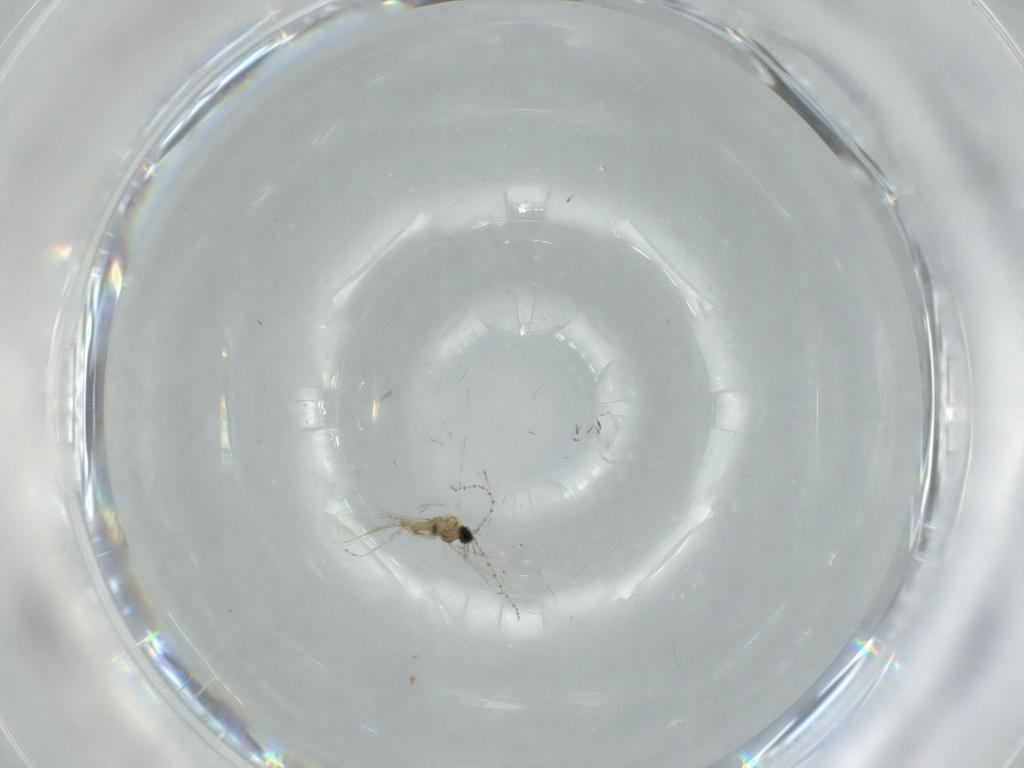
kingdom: Animalia
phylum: Arthropoda
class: Insecta
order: Diptera
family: Cecidomyiidae
